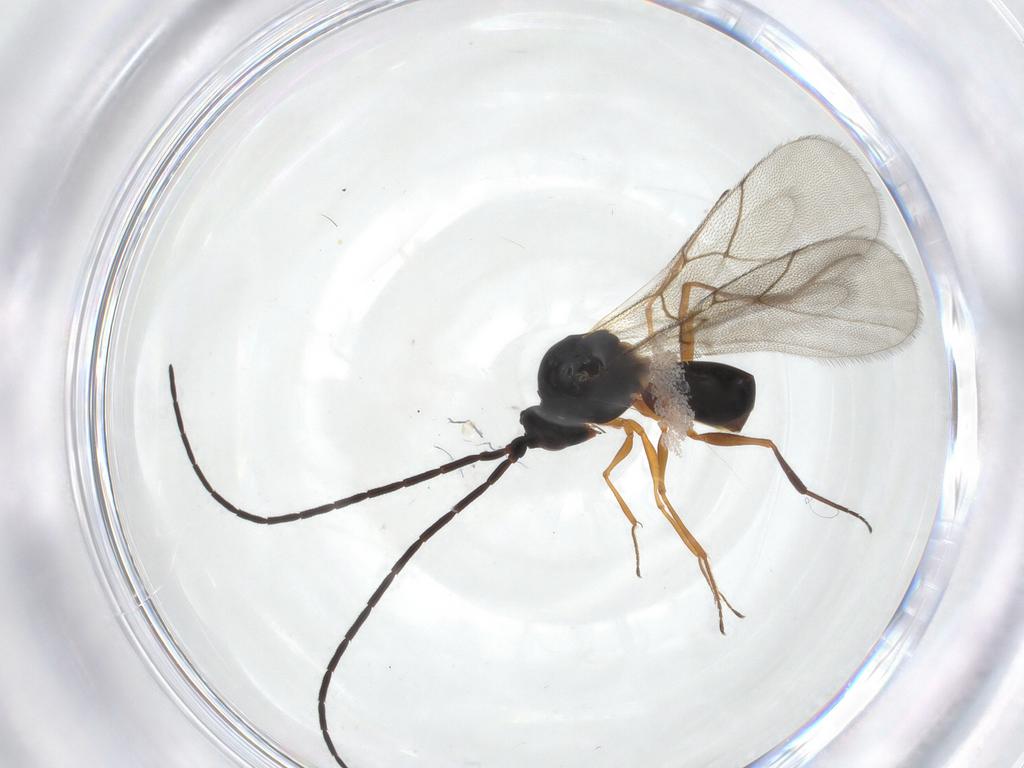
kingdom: Animalia
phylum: Arthropoda
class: Insecta
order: Hymenoptera
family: Figitidae
